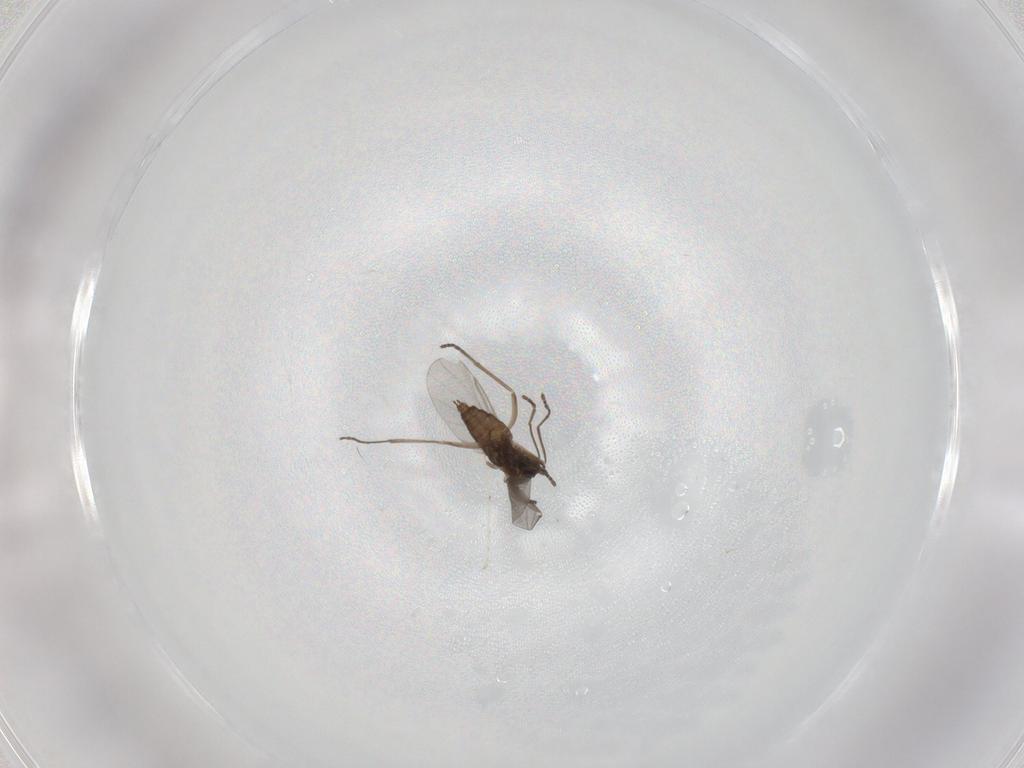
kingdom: Animalia
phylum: Arthropoda
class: Insecta
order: Diptera
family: Cecidomyiidae
